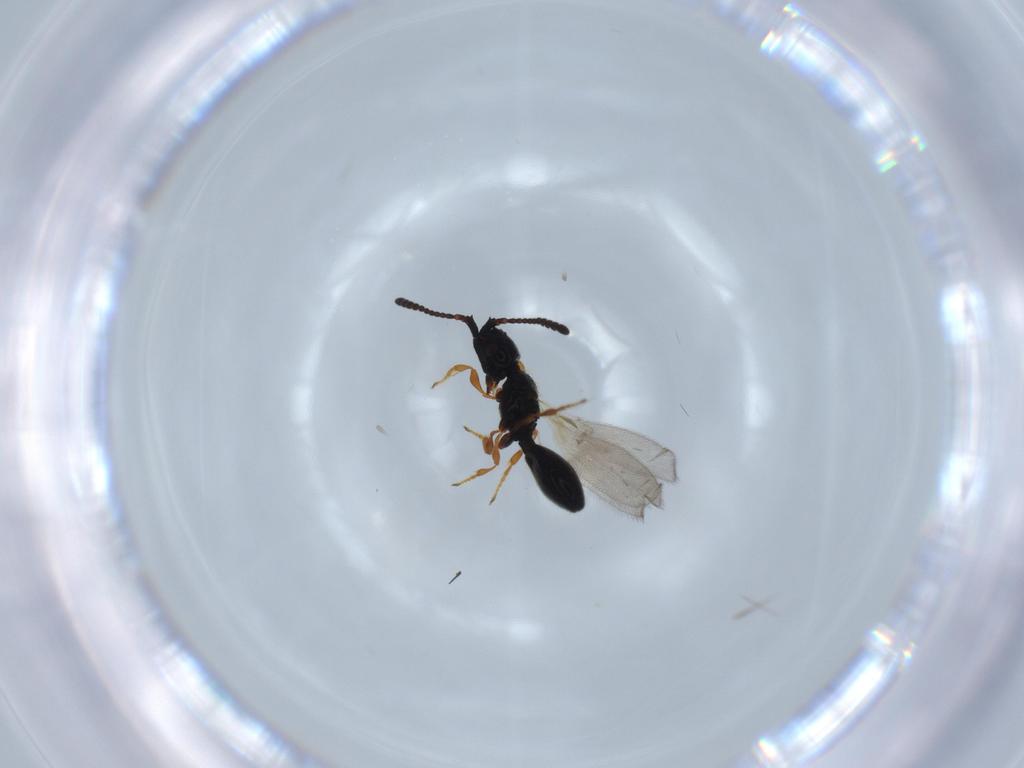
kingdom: Animalia
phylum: Arthropoda
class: Insecta
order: Hymenoptera
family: Diapriidae
